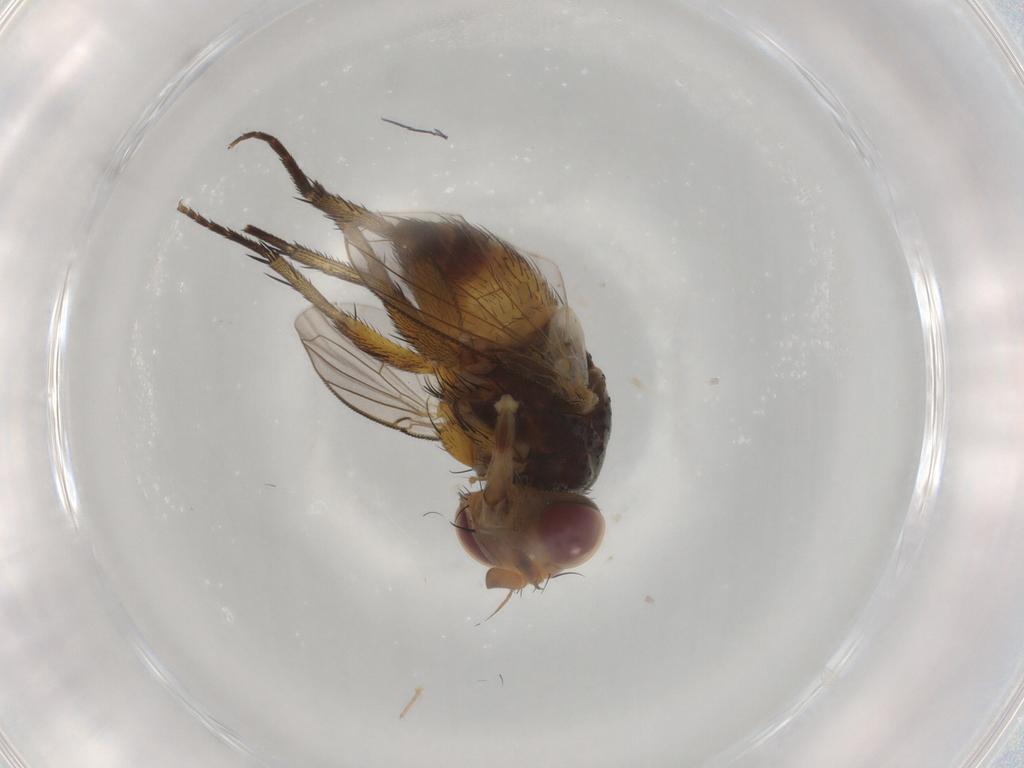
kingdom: Animalia
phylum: Arthropoda
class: Insecta
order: Diptera
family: Tachinidae
